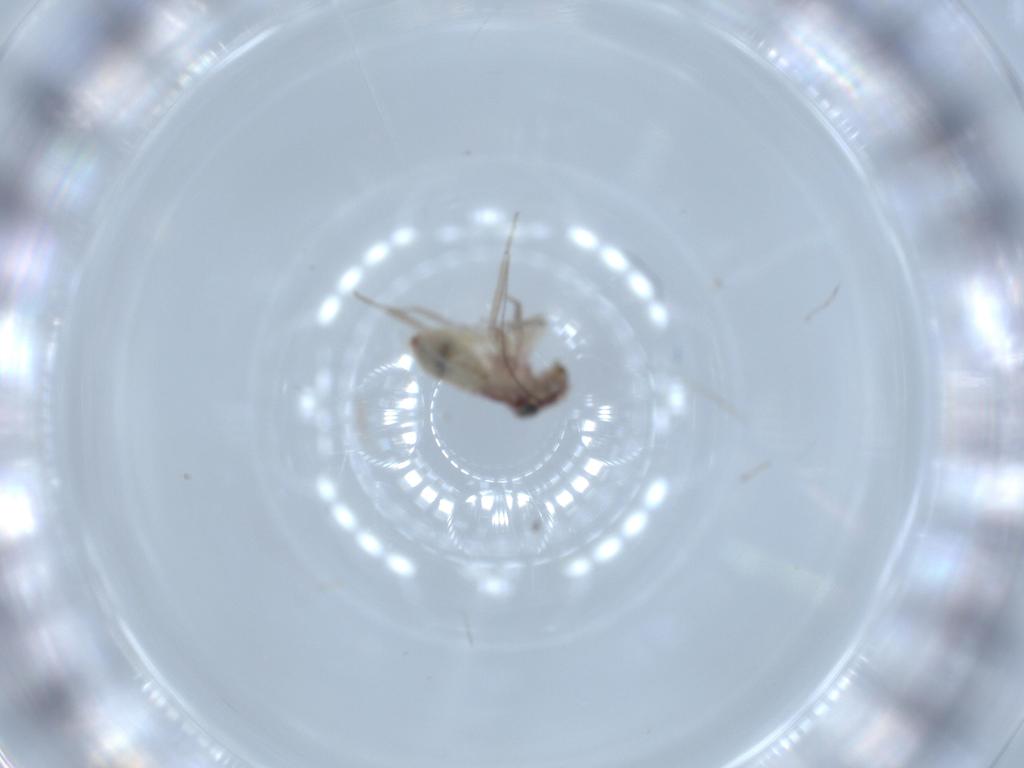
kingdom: Animalia
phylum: Arthropoda
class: Insecta
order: Psocodea
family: Lepidopsocidae
